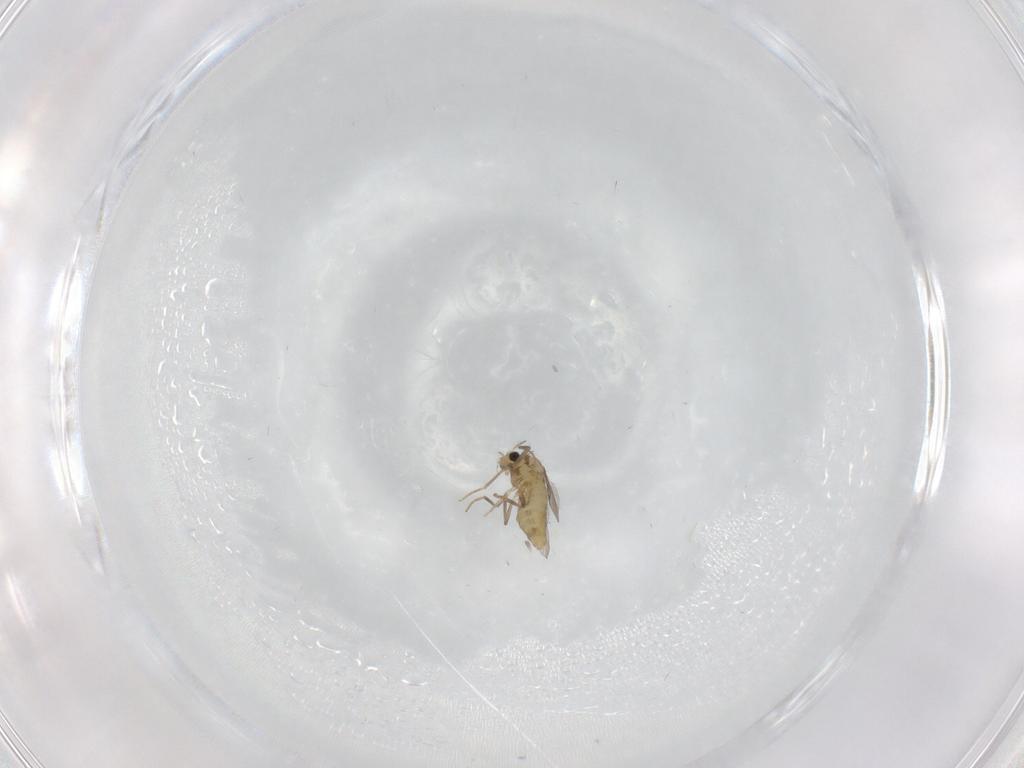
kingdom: Animalia
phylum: Arthropoda
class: Insecta
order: Diptera
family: Chironomidae
